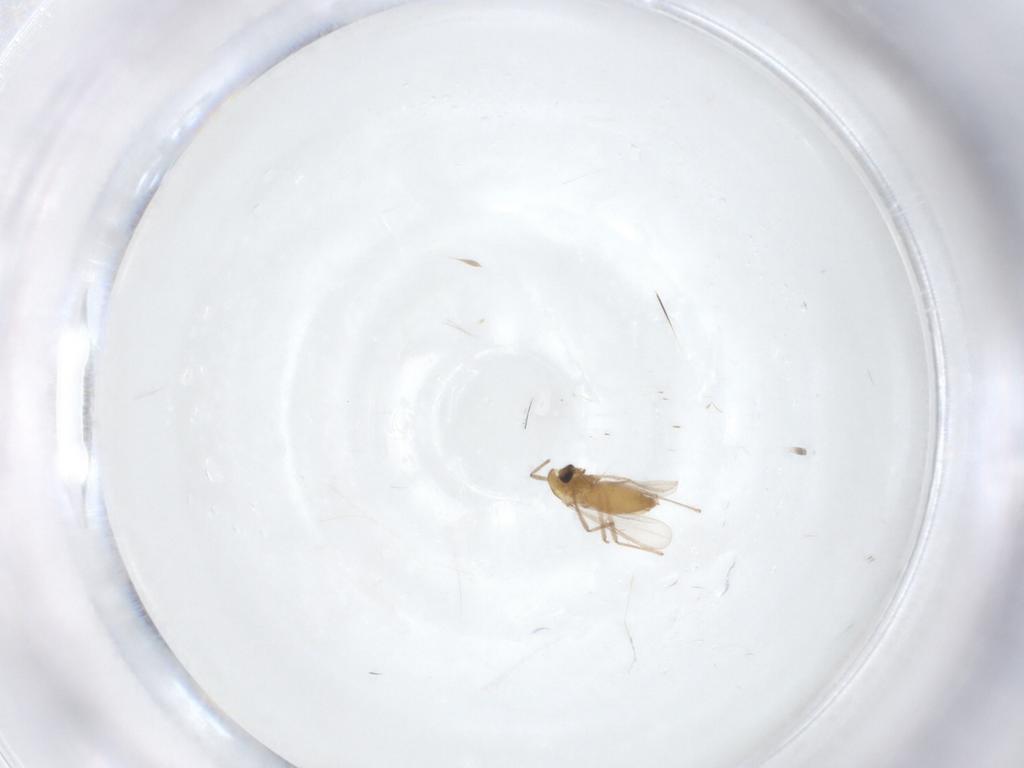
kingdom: Animalia
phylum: Arthropoda
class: Insecta
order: Diptera
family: Chironomidae
